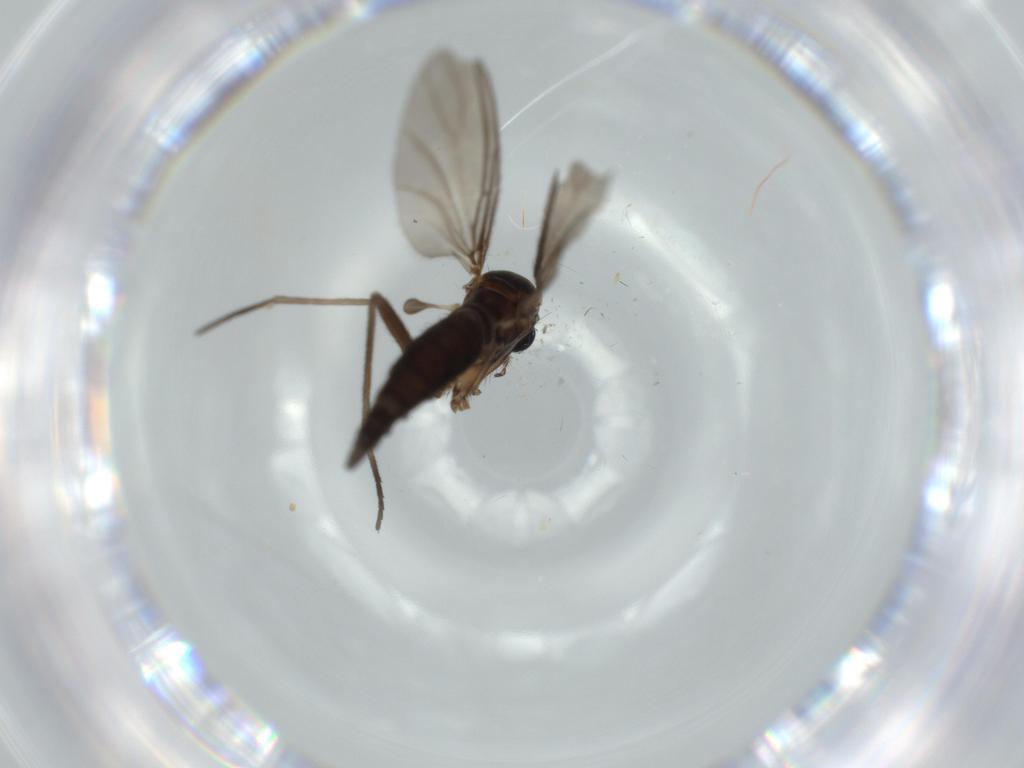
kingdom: Animalia
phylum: Arthropoda
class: Insecta
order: Diptera
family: Sciaridae
